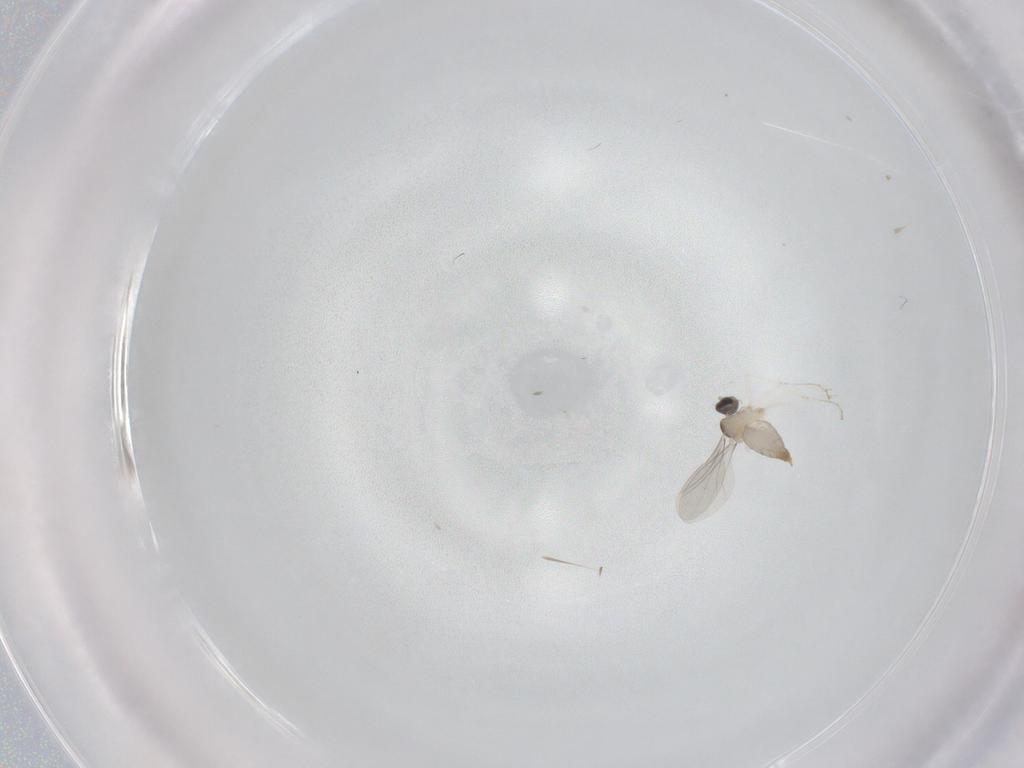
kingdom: Animalia
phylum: Arthropoda
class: Insecta
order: Diptera
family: Cecidomyiidae
